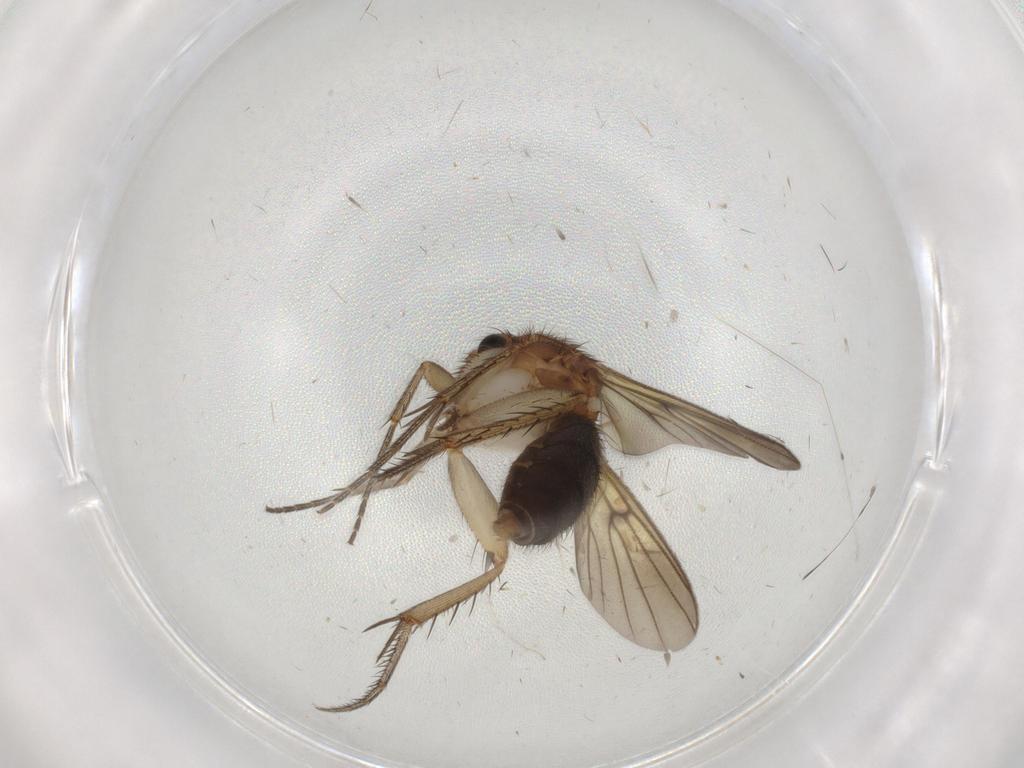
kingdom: Animalia
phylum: Arthropoda
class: Insecta
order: Diptera
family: Mycetophilidae
